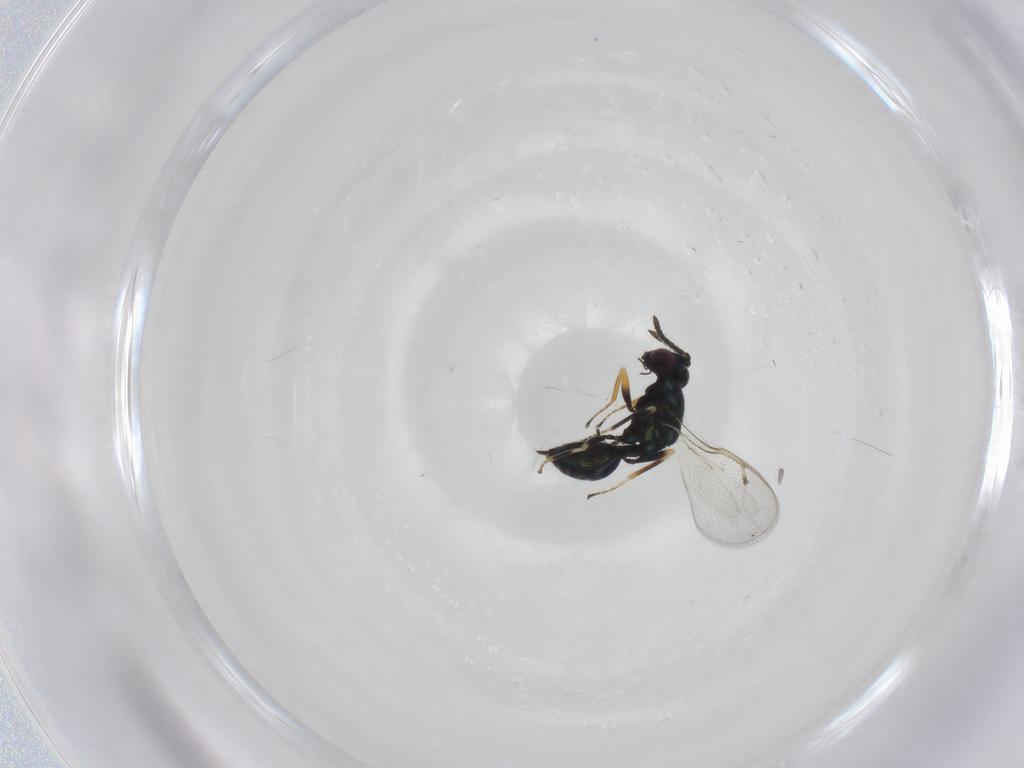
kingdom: Animalia
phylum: Arthropoda
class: Insecta
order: Hymenoptera
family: Pteromalidae
